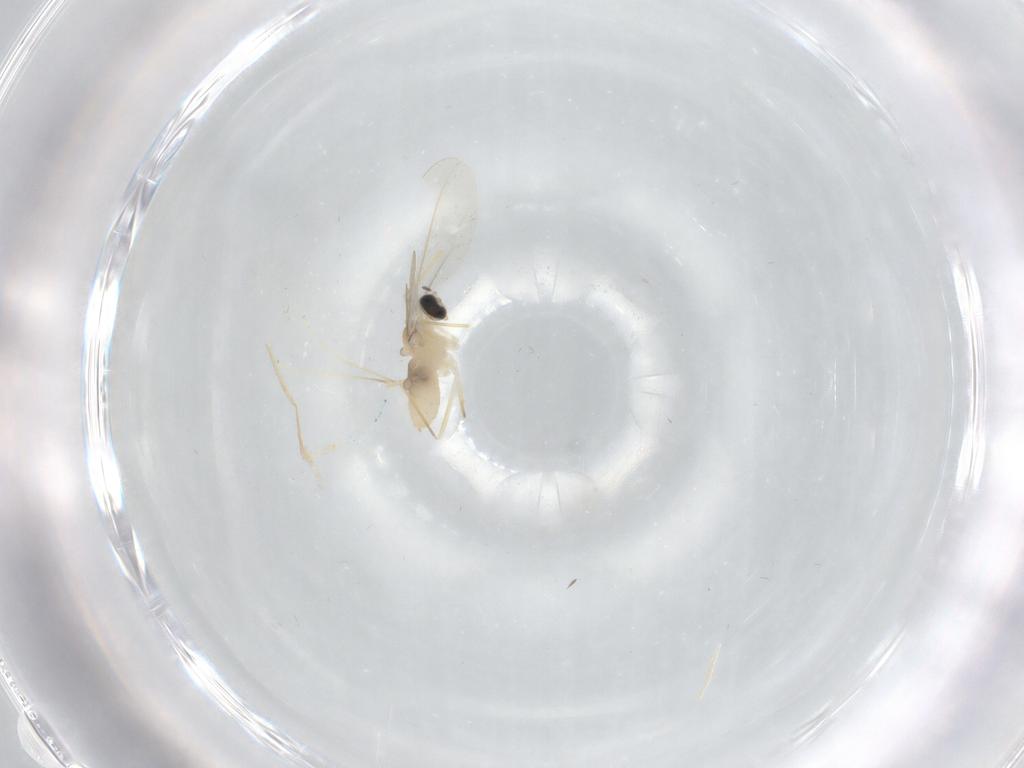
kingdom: Animalia
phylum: Arthropoda
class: Insecta
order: Diptera
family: Cecidomyiidae
